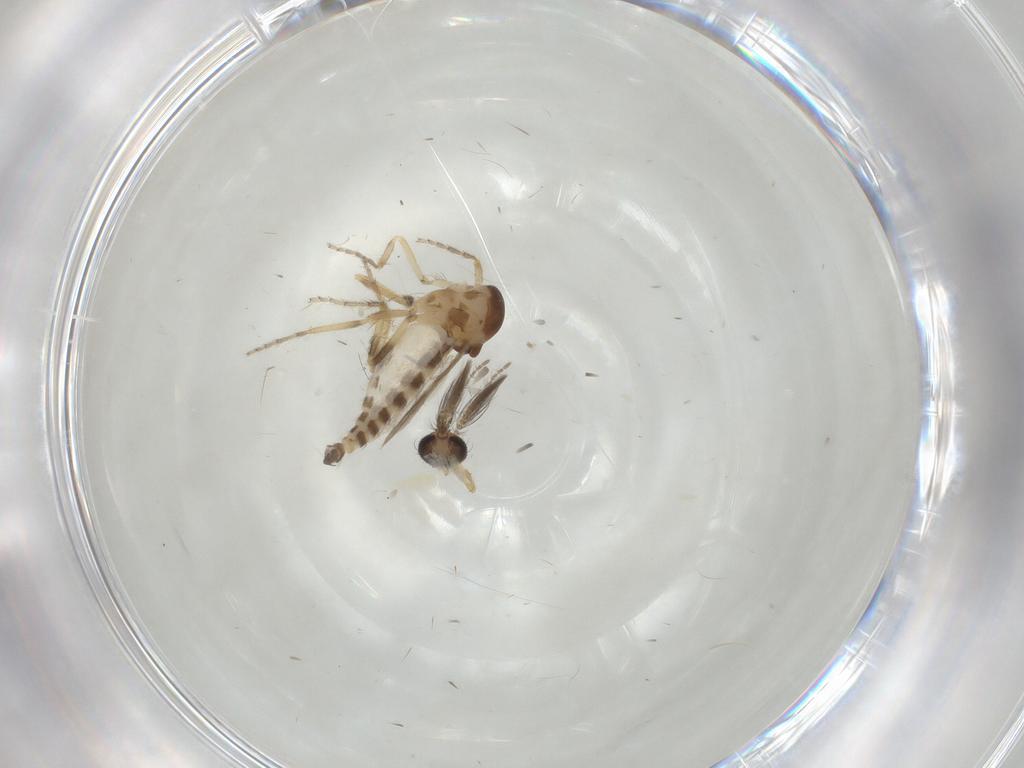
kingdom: Animalia
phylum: Arthropoda
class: Insecta
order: Diptera
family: Ceratopogonidae
